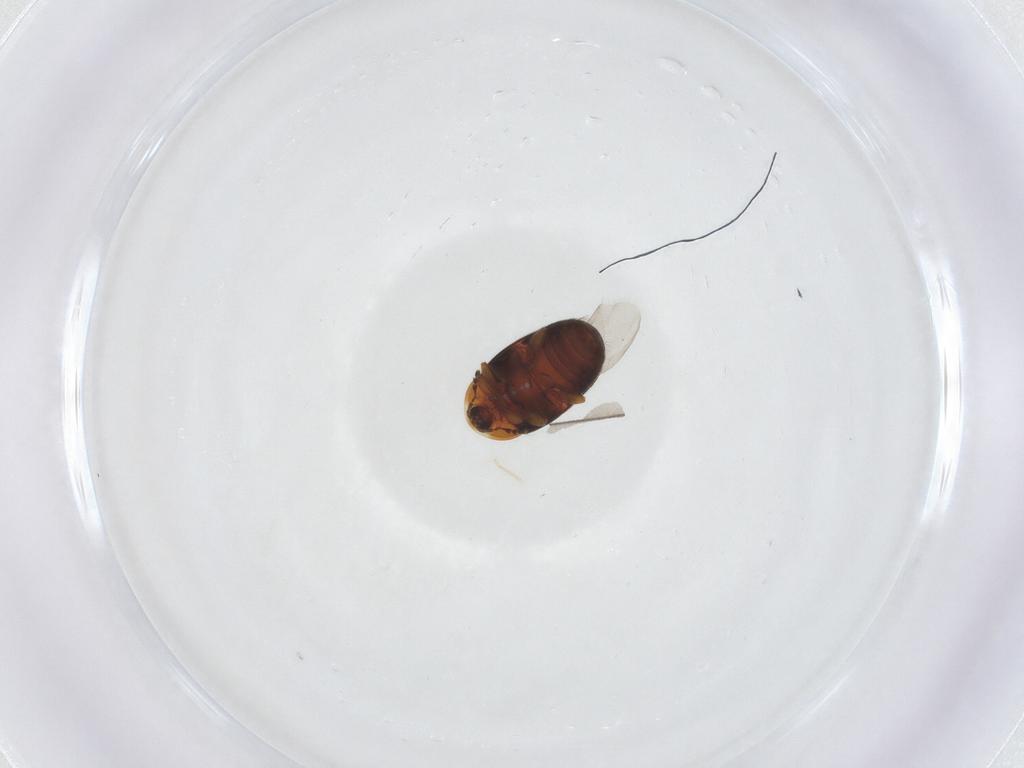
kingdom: Animalia
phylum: Arthropoda
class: Insecta
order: Coleoptera
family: Corylophidae
